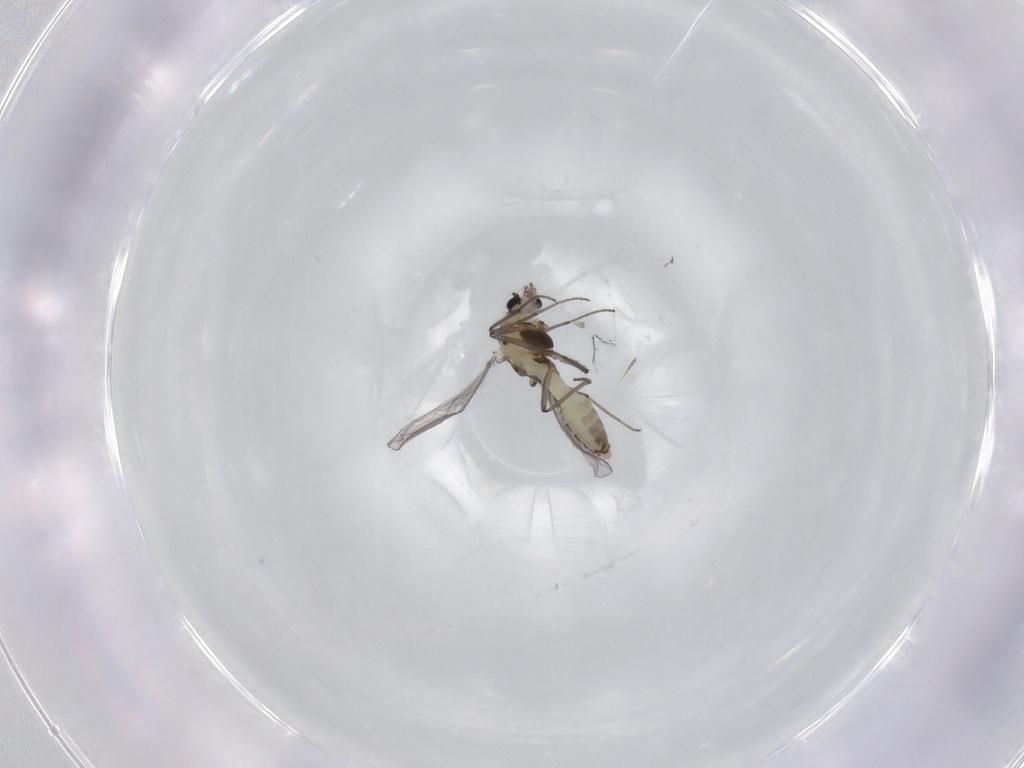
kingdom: Animalia
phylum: Arthropoda
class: Insecta
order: Diptera
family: Chironomidae
